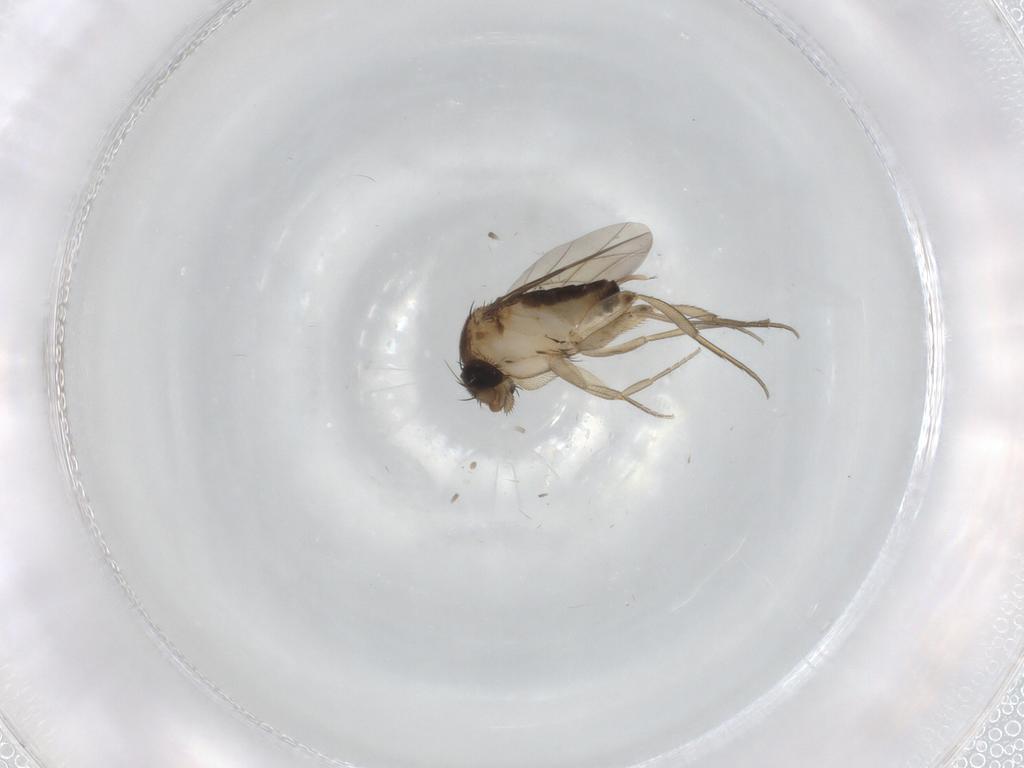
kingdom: Animalia
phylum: Arthropoda
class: Insecta
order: Diptera
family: Phoridae
